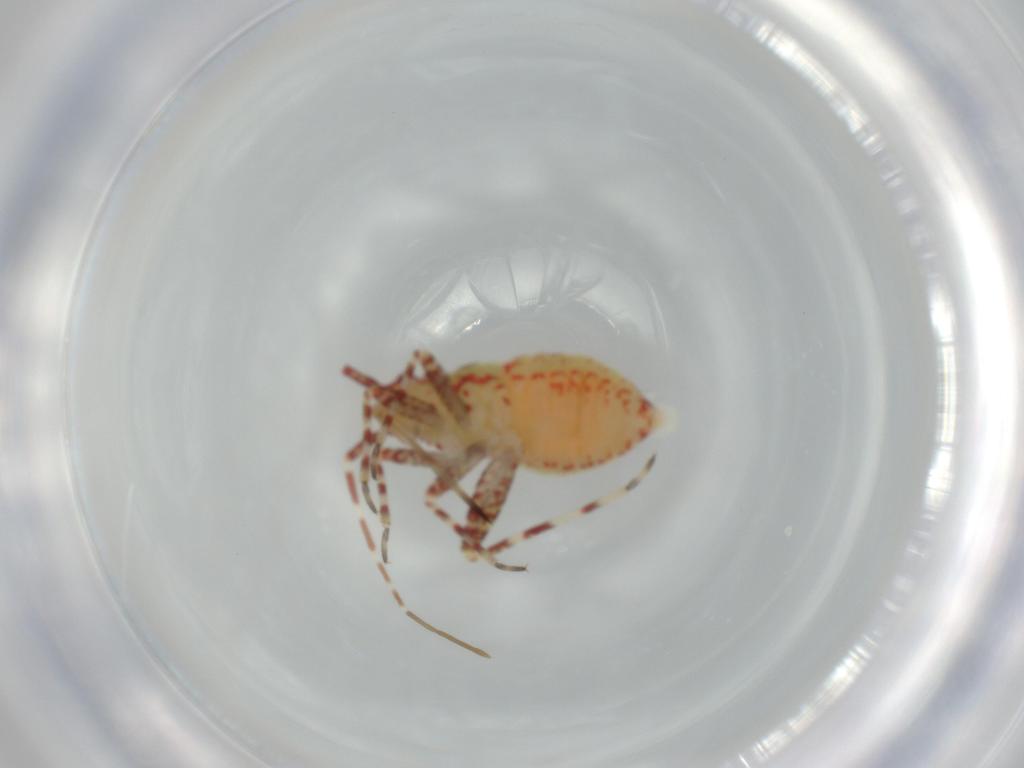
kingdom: Animalia
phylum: Arthropoda
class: Insecta
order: Hemiptera
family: Miridae
